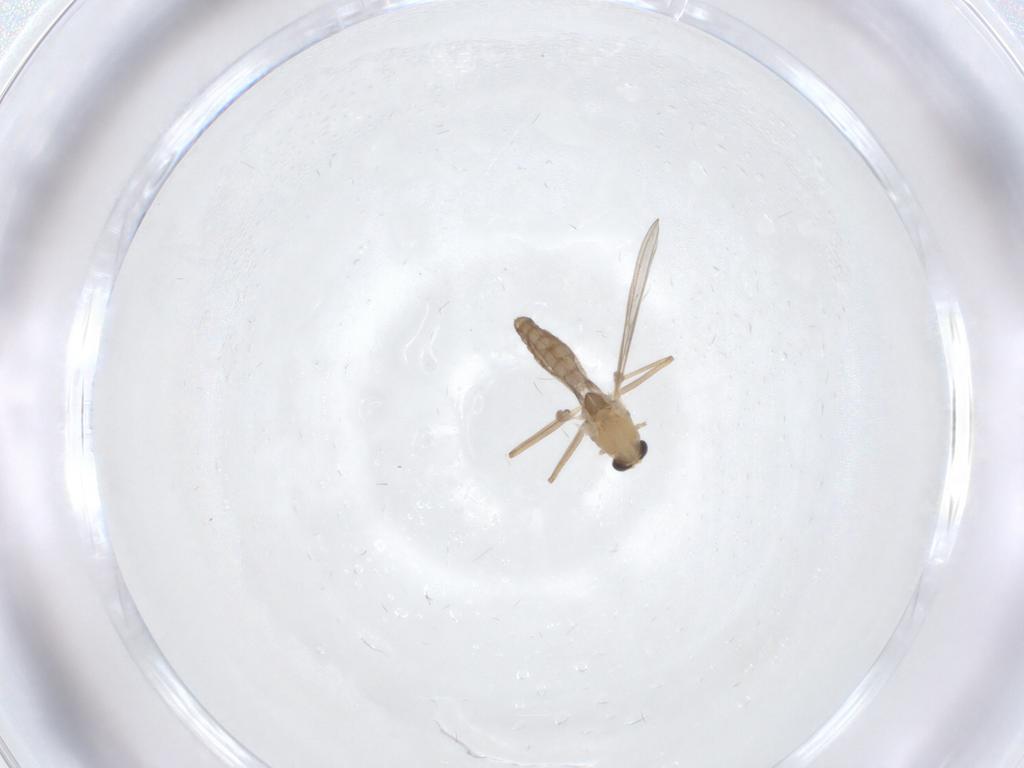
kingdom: Animalia
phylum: Arthropoda
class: Insecta
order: Diptera
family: Chironomidae
